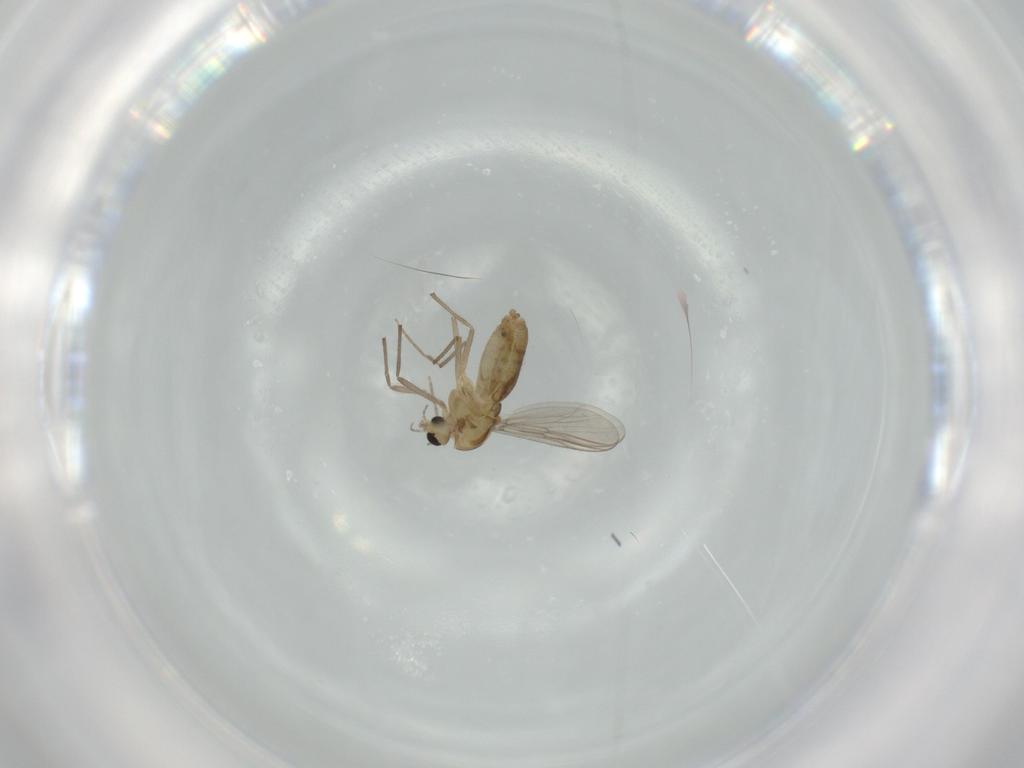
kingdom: Animalia
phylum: Arthropoda
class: Insecta
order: Diptera
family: Chironomidae
